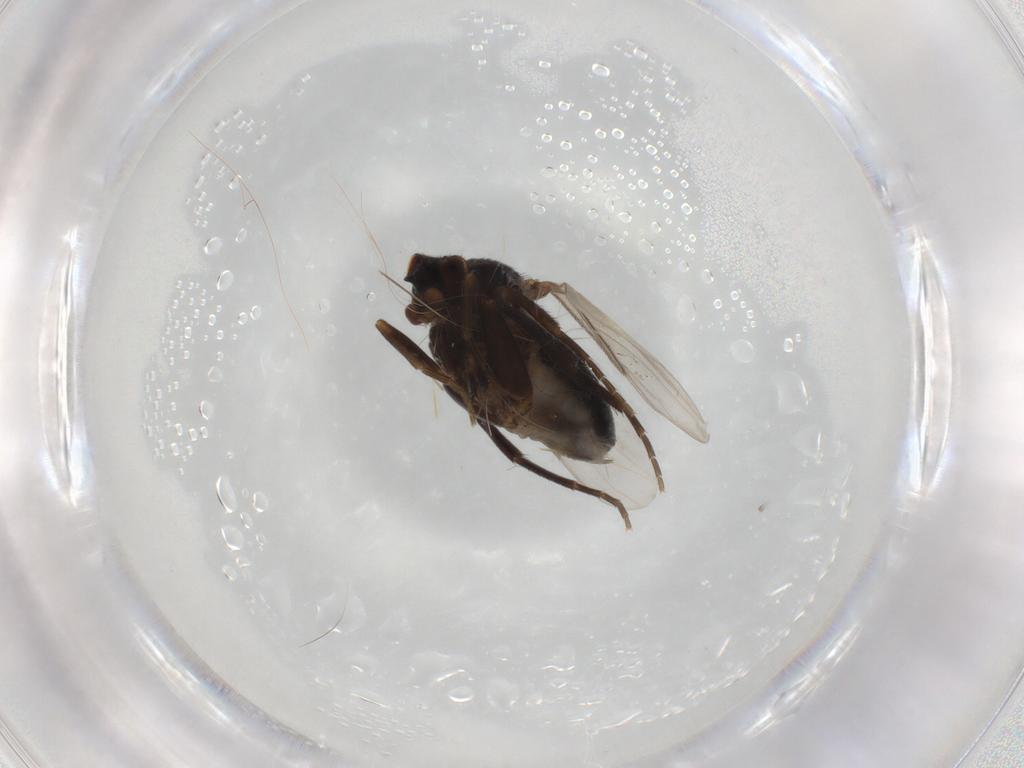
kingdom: Animalia
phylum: Arthropoda
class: Insecta
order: Diptera
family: Phoridae
